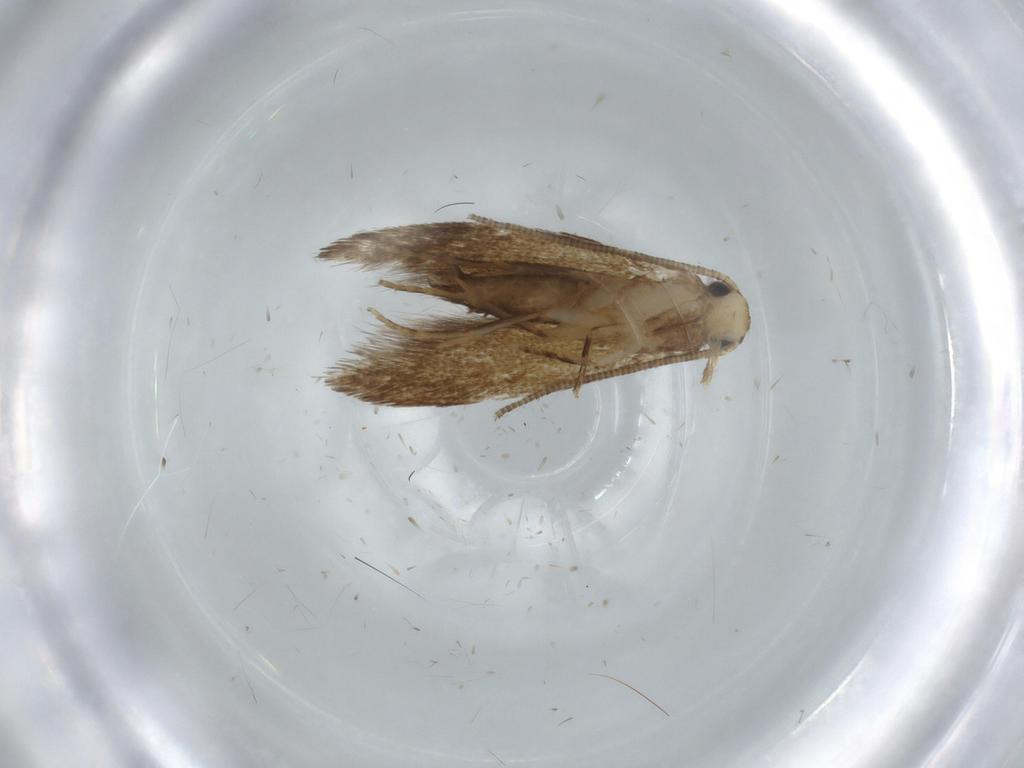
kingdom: Animalia
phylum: Arthropoda
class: Insecta
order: Lepidoptera
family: Tineidae
